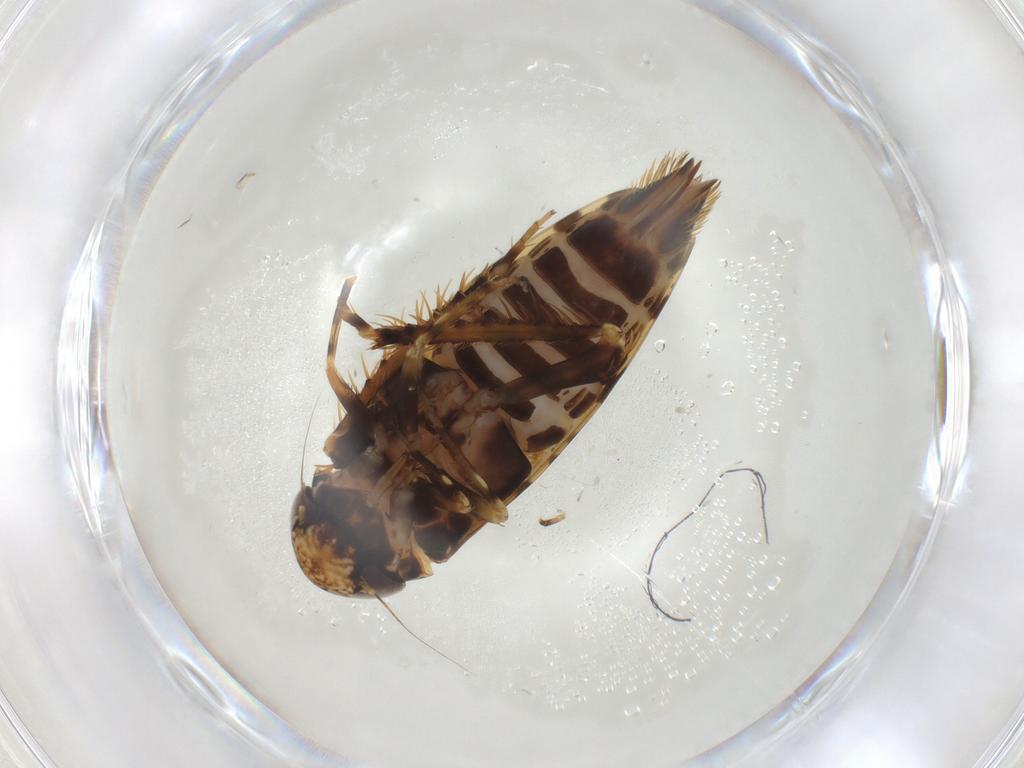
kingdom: Animalia
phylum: Arthropoda
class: Insecta
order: Hemiptera
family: Cicadellidae
